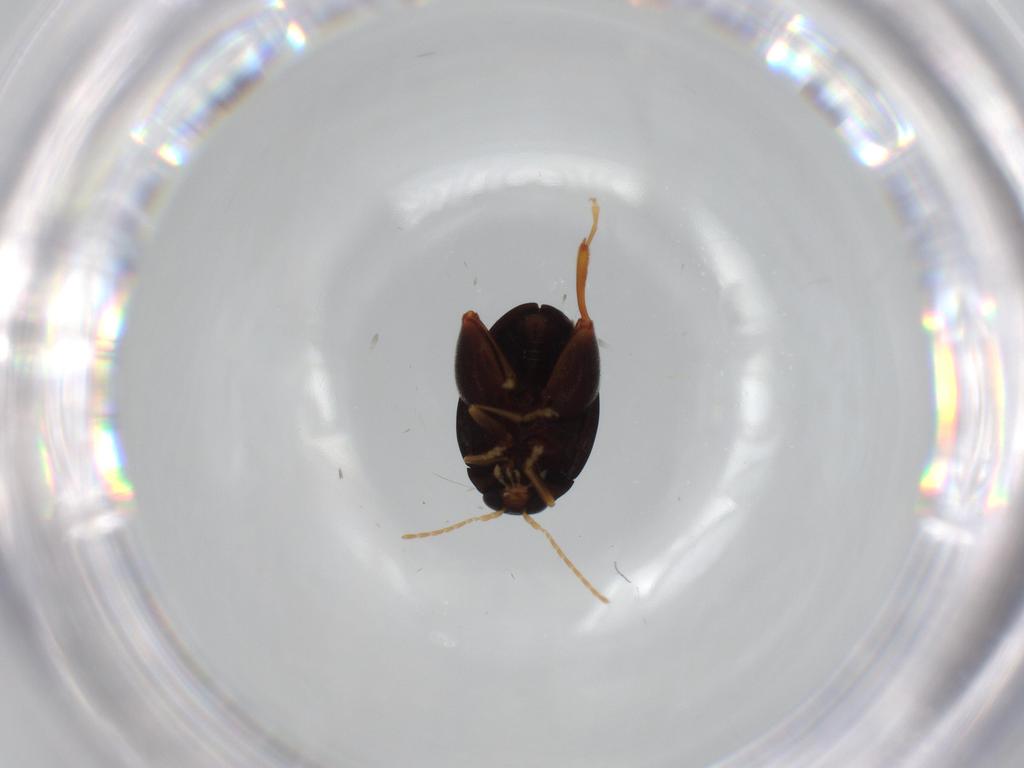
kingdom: Animalia
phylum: Arthropoda
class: Insecta
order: Coleoptera
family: Chrysomelidae
